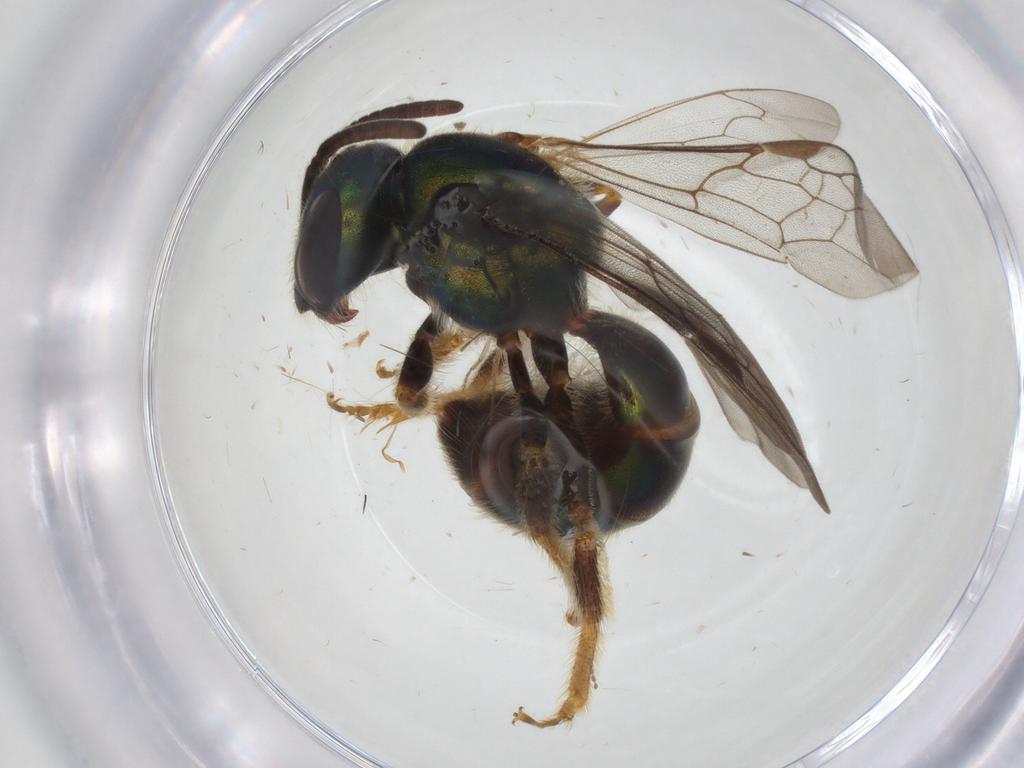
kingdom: Animalia
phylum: Arthropoda
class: Insecta
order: Hymenoptera
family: Halictidae
